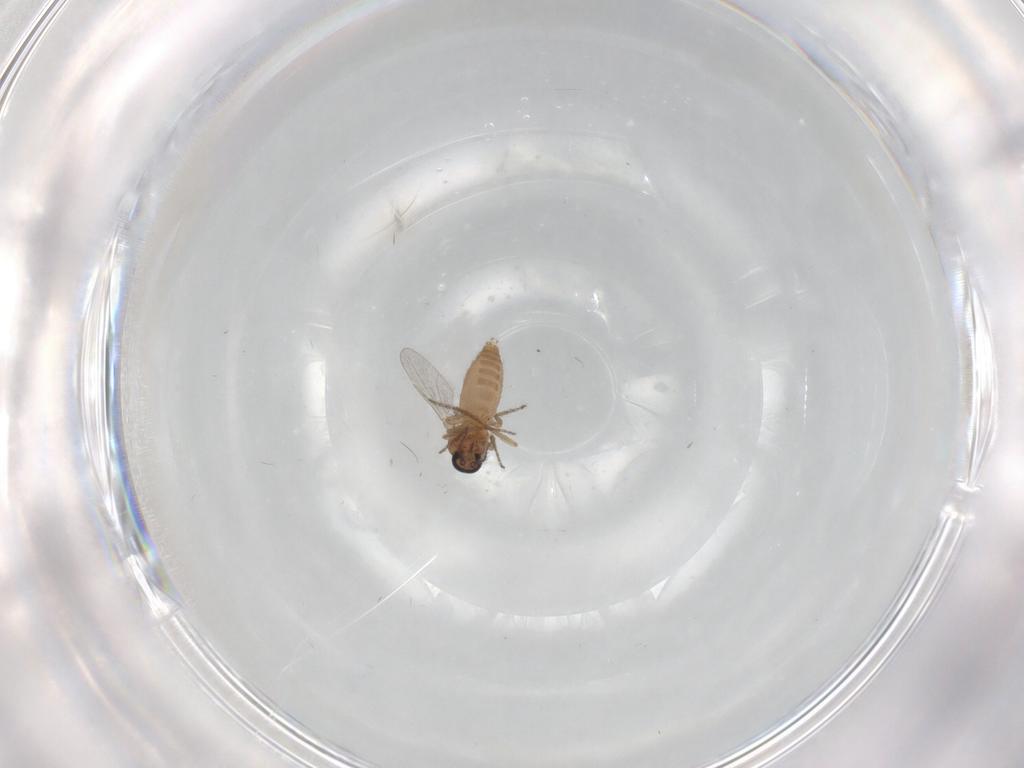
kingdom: Animalia
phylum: Arthropoda
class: Insecta
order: Diptera
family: Ceratopogonidae
